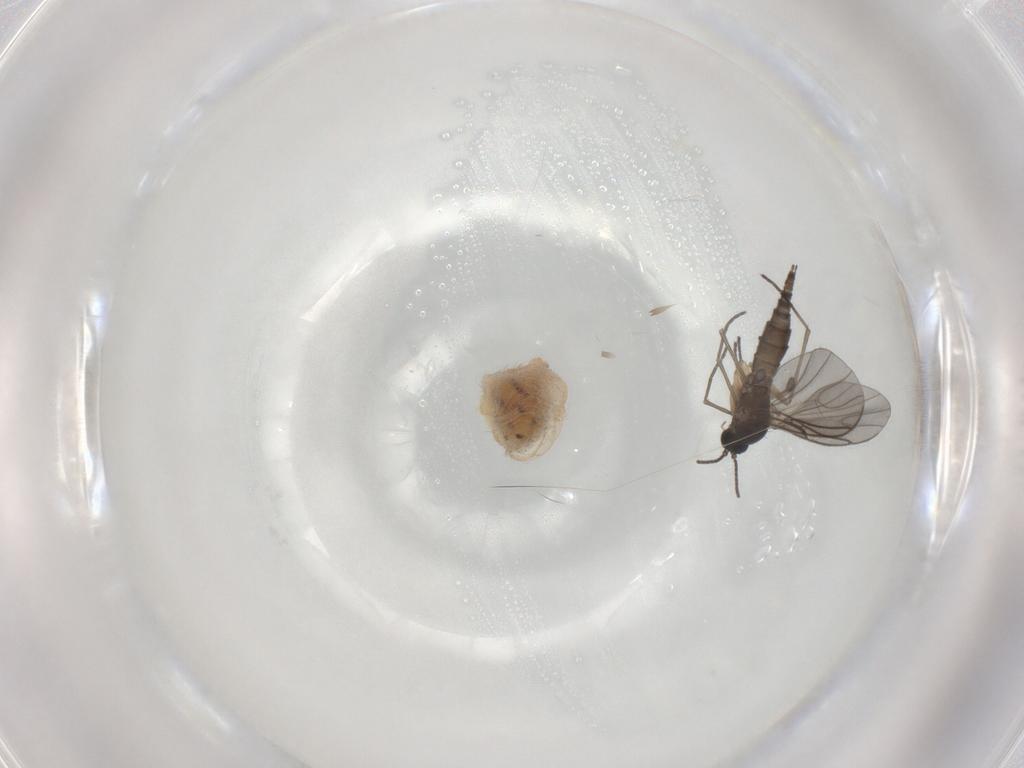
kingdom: Animalia
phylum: Arthropoda
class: Insecta
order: Diptera
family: Sciaridae
